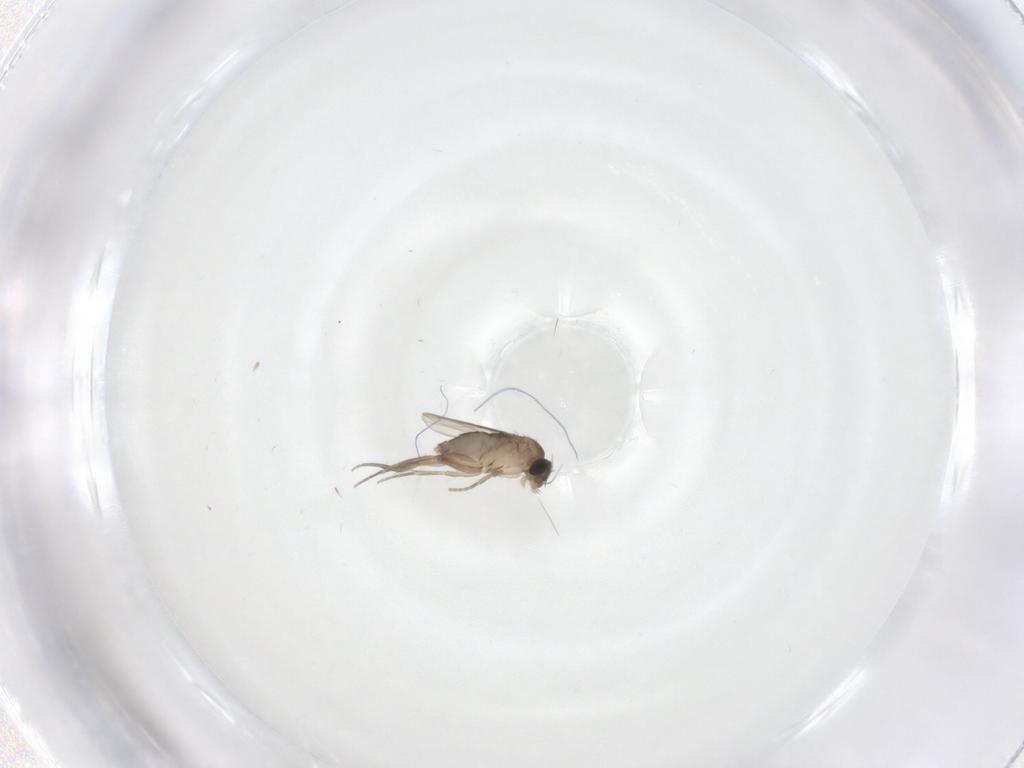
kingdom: Animalia
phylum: Arthropoda
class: Insecta
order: Diptera
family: Phoridae
